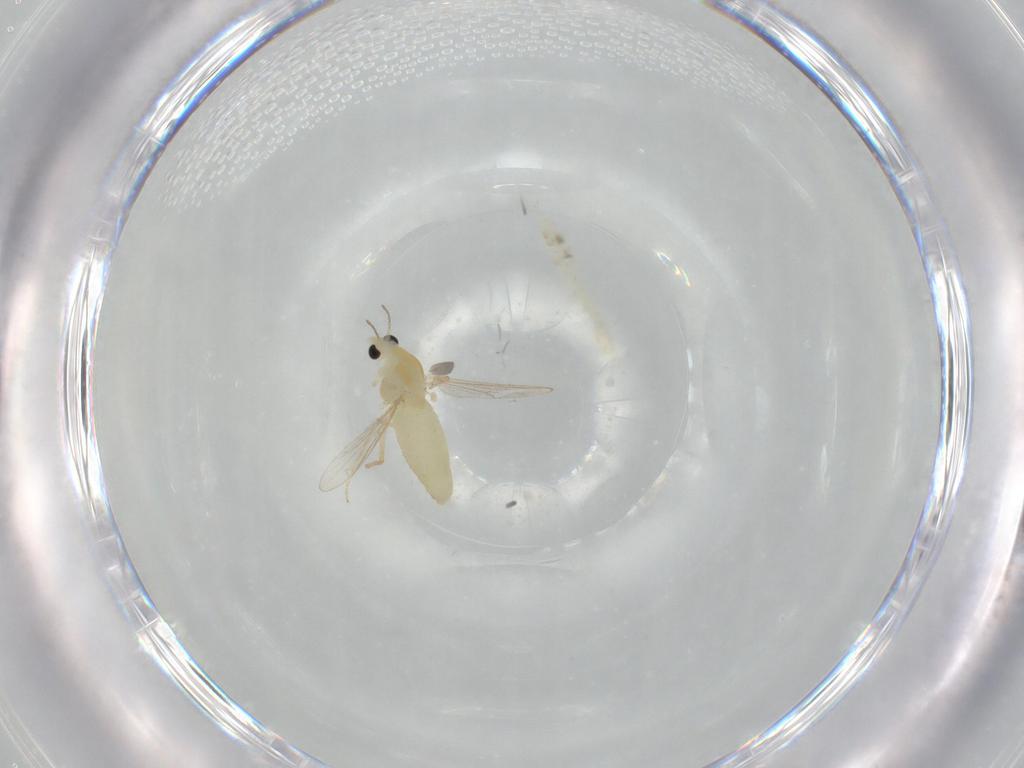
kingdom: Animalia
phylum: Arthropoda
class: Insecta
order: Diptera
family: Chironomidae
